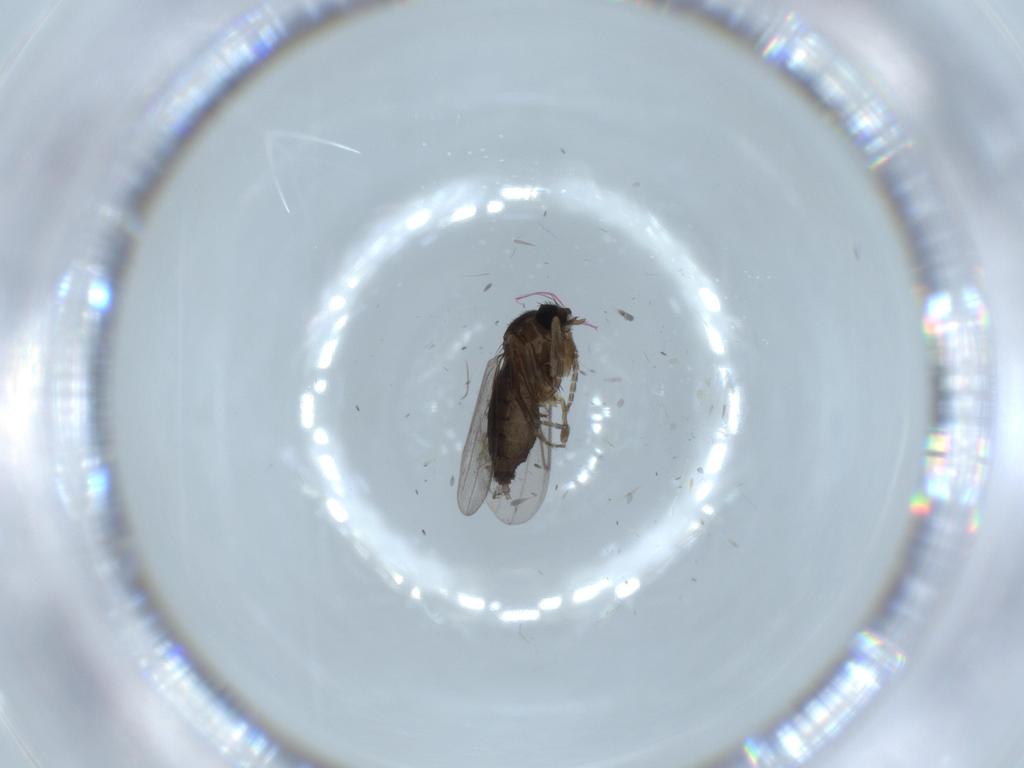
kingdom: Animalia
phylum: Arthropoda
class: Insecta
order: Diptera
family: Phoridae
